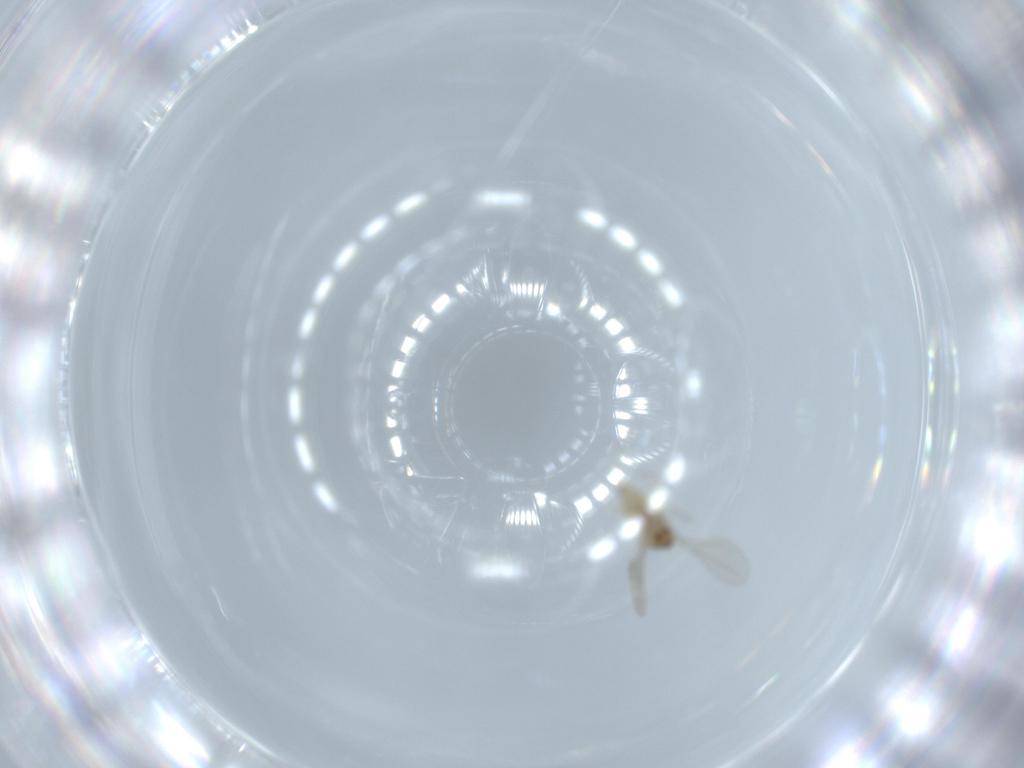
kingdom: Animalia
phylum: Arthropoda
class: Insecta
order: Diptera
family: Cecidomyiidae
